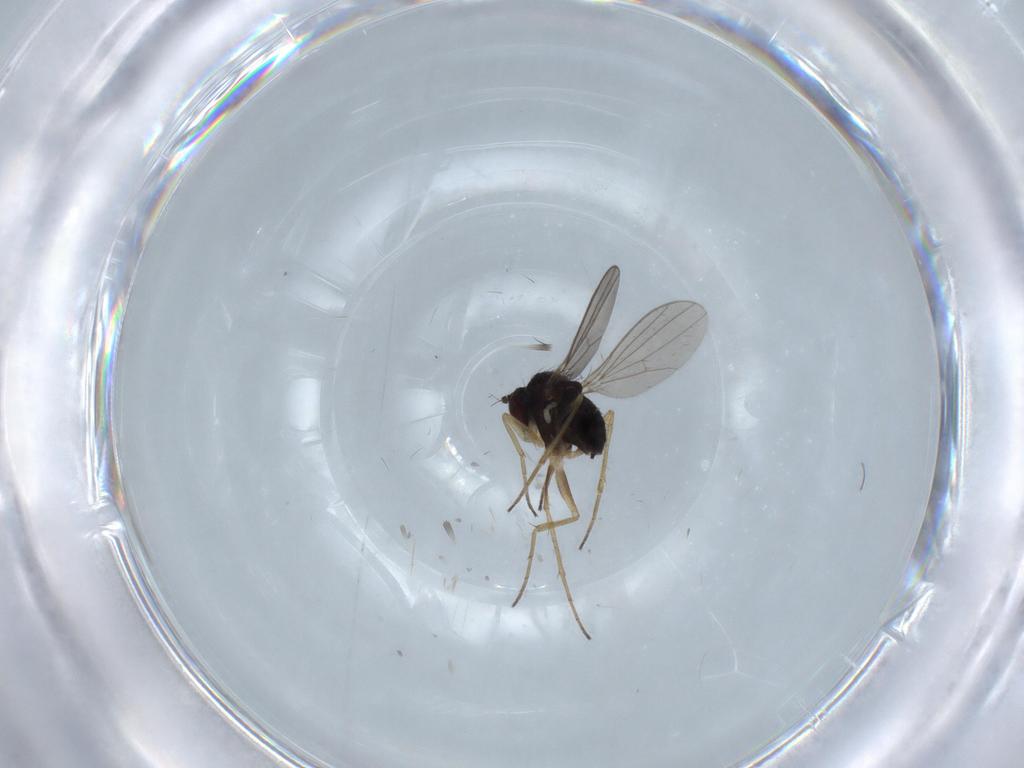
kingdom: Animalia
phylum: Arthropoda
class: Insecta
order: Diptera
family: Dolichopodidae
